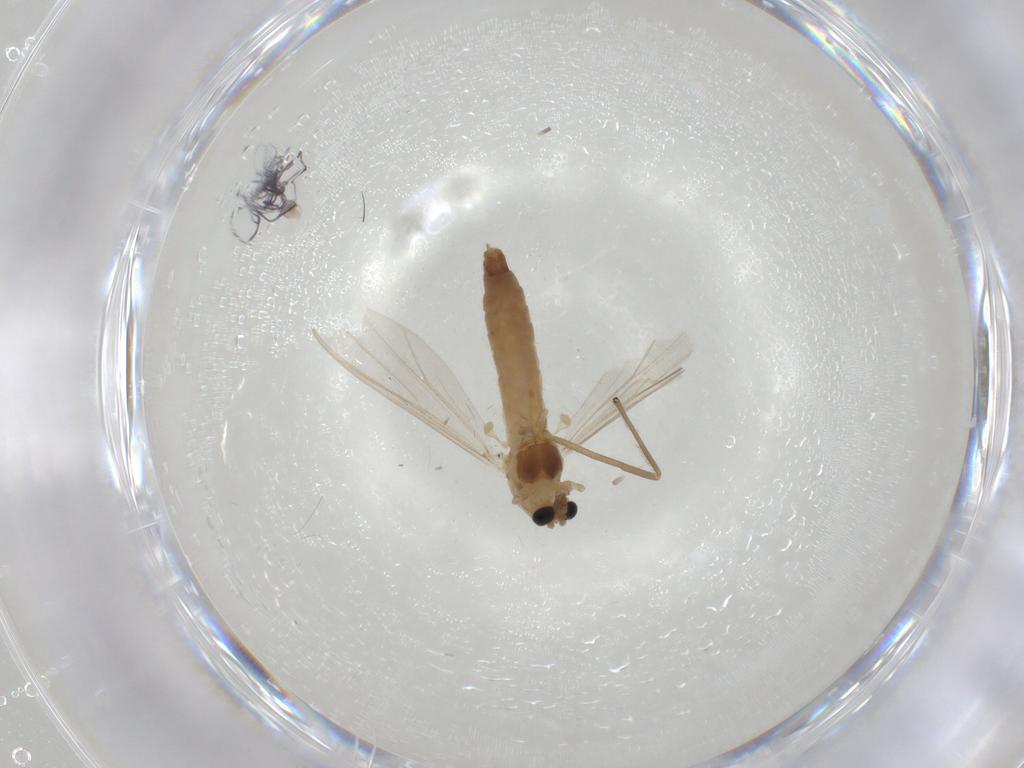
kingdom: Animalia
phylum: Arthropoda
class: Insecta
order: Diptera
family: Chironomidae
